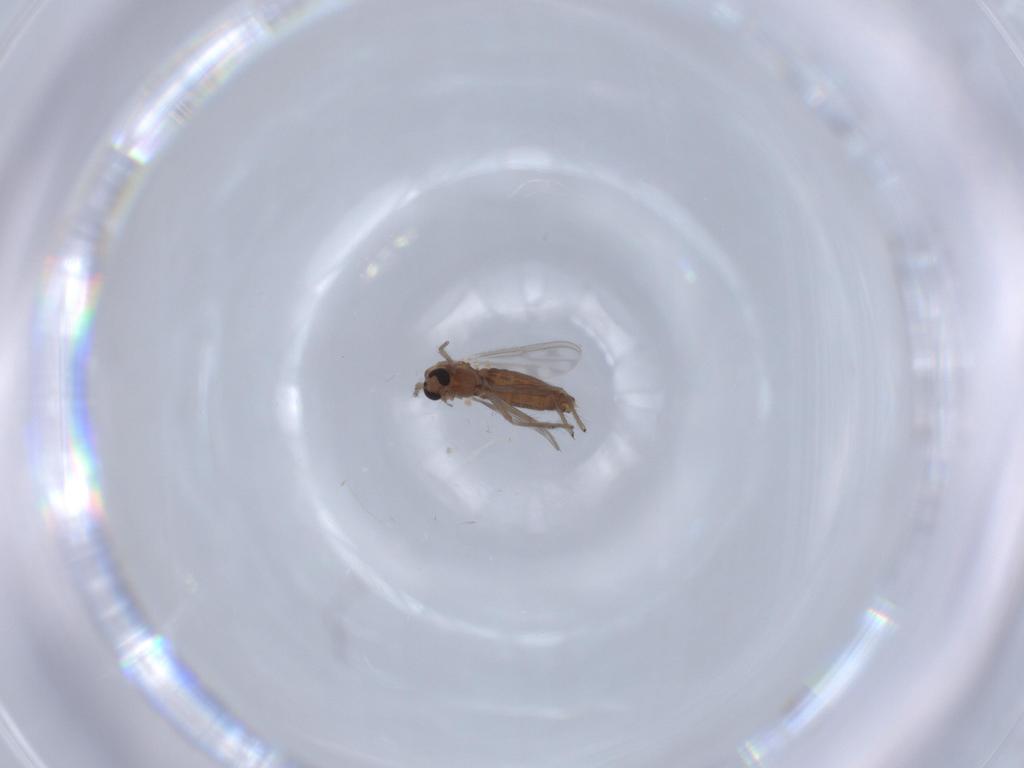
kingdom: Animalia
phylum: Arthropoda
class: Insecta
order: Diptera
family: Chironomidae
